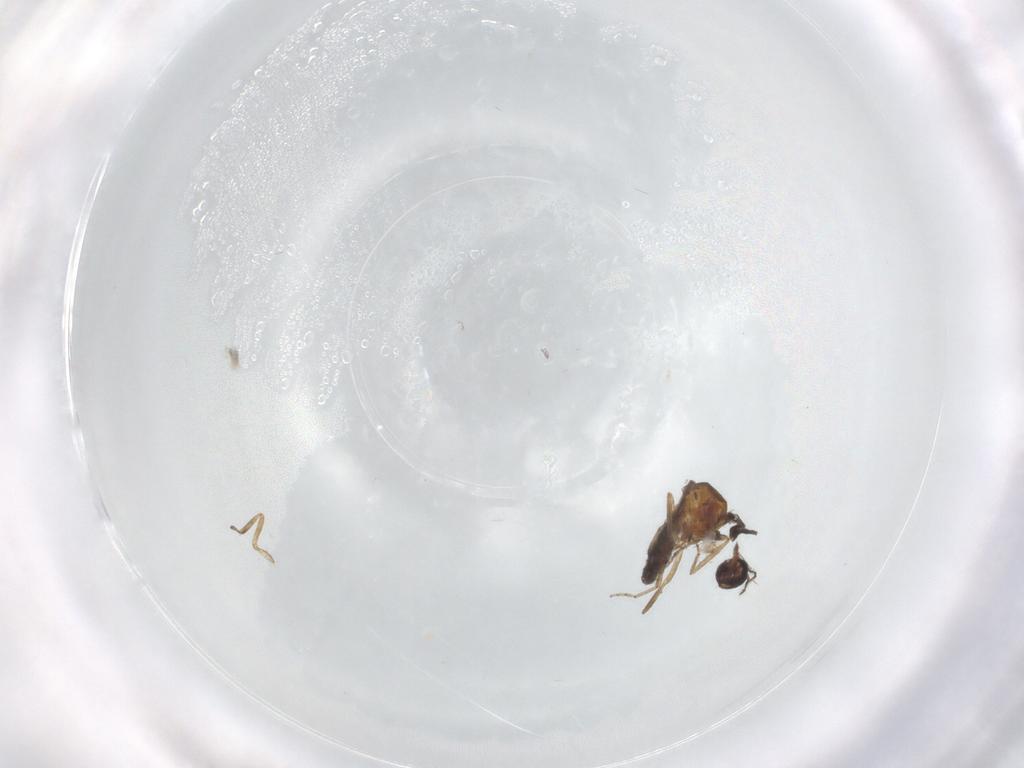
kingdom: Animalia
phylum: Arthropoda
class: Insecta
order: Diptera
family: Ceratopogonidae
